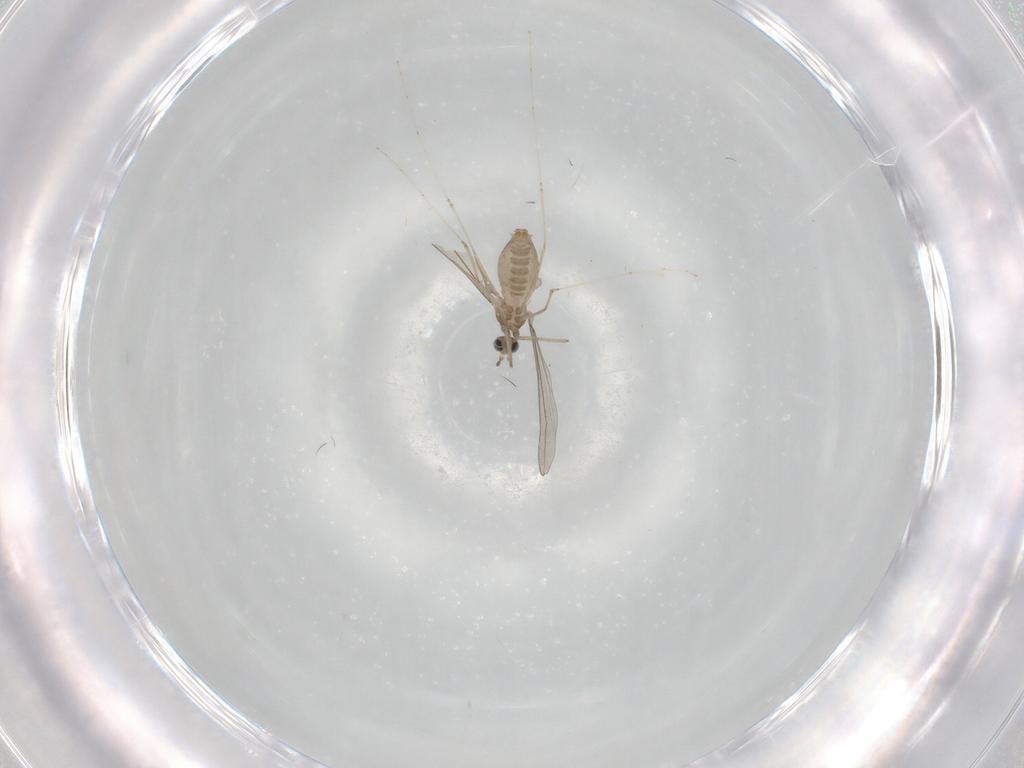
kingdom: Animalia
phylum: Arthropoda
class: Insecta
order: Diptera
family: Cecidomyiidae
